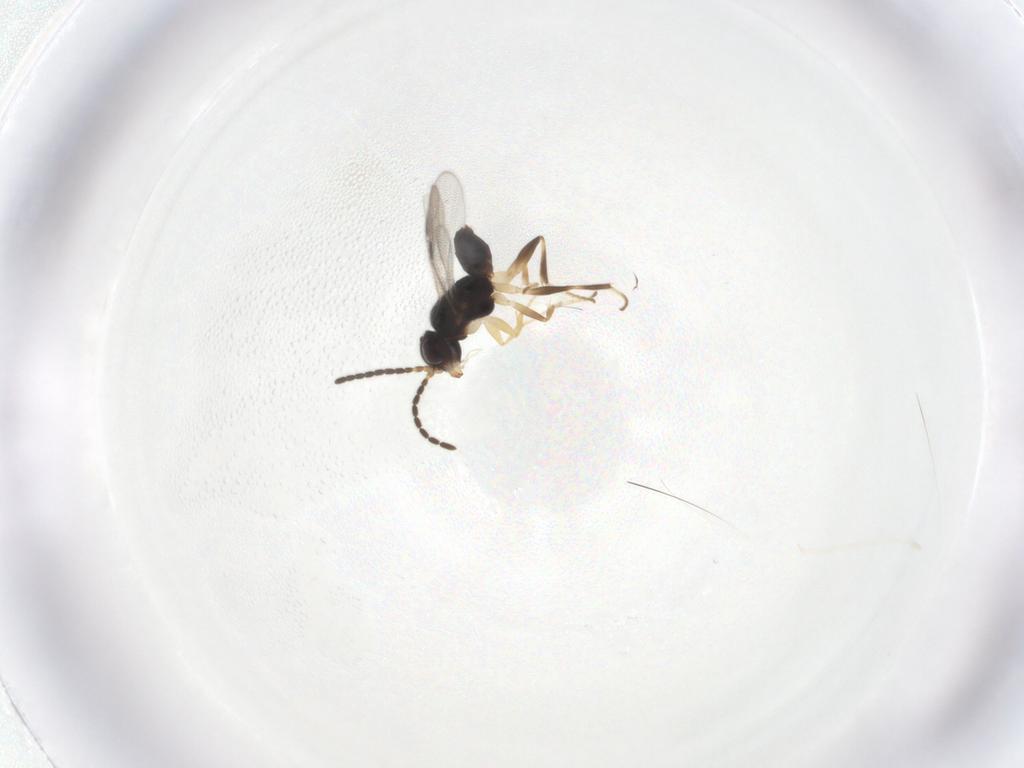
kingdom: Animalia
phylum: Arthropoda
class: Insecta
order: Hymenoptera
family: Dryinidae
